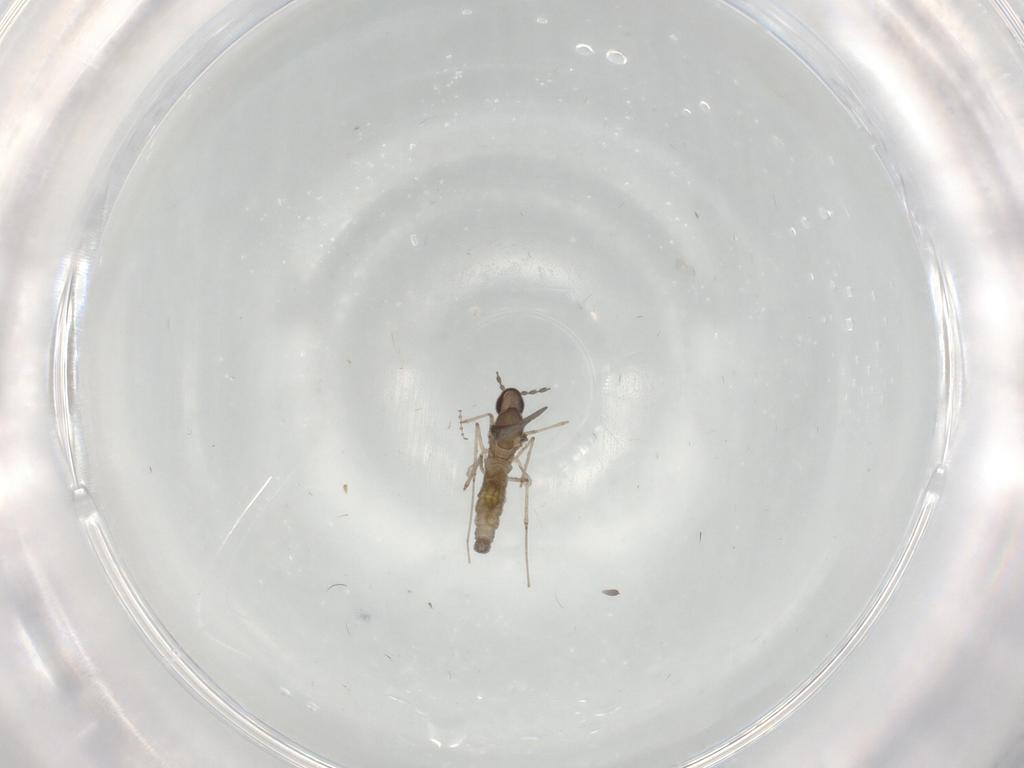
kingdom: Animalia
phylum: Arthropoda
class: Insecta
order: Diptera
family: Cecidomyiidae
